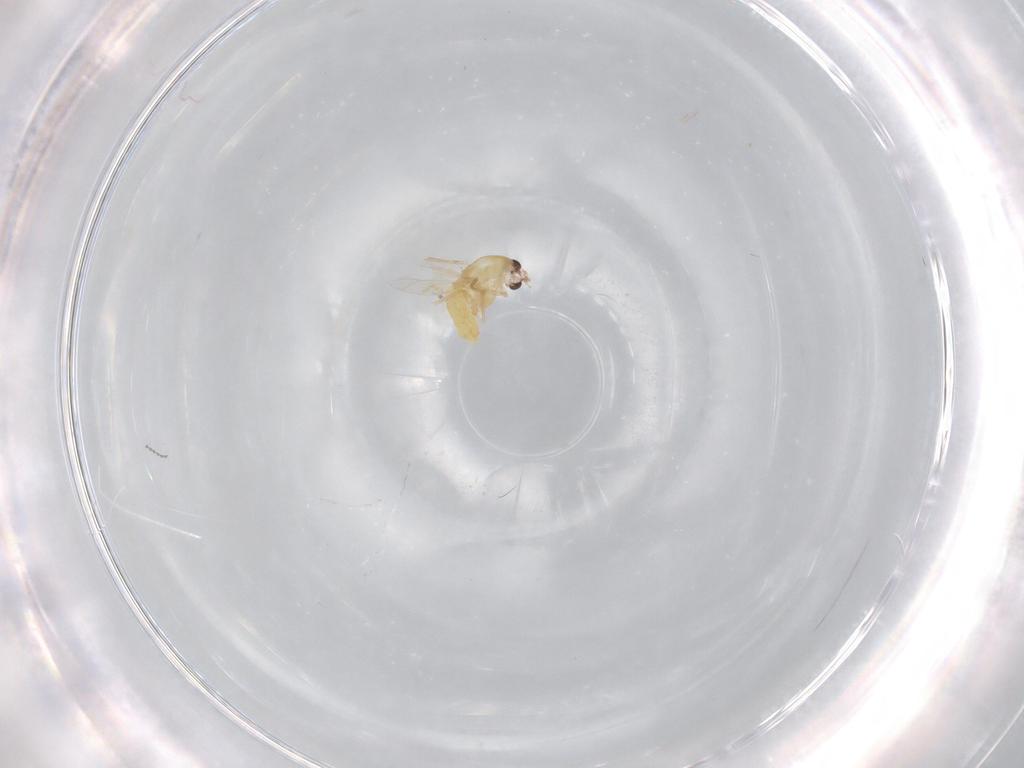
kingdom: Animalia
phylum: Arthropoda
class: Insecta
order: Diptera
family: Chironomidae
